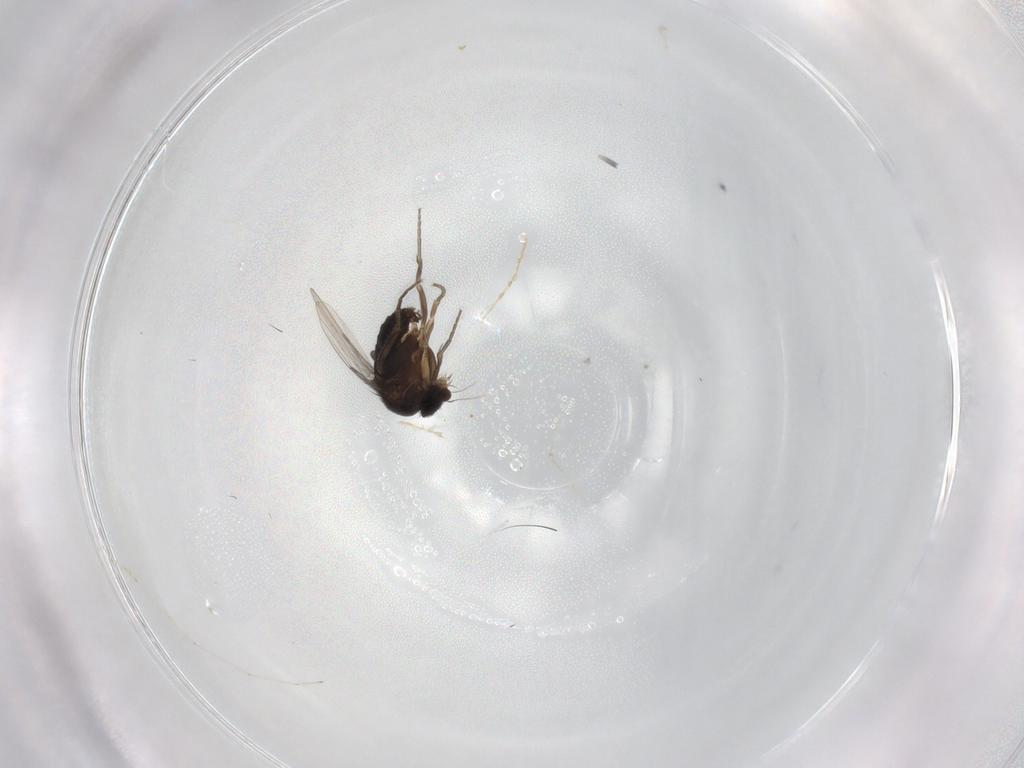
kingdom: Animalia
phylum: Arthropoda
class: Insecta
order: Diptera
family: Phoridae
